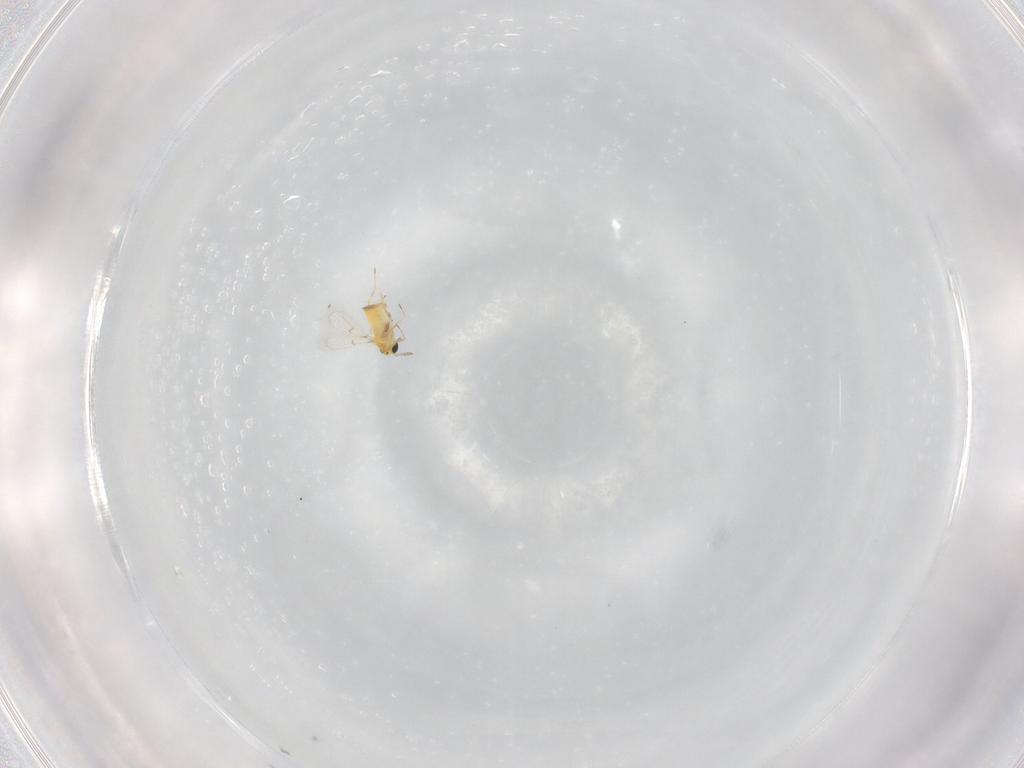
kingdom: Animalia
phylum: Arthropoda
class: Insecta
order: Hymenoptera
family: Trichogrammatidae
